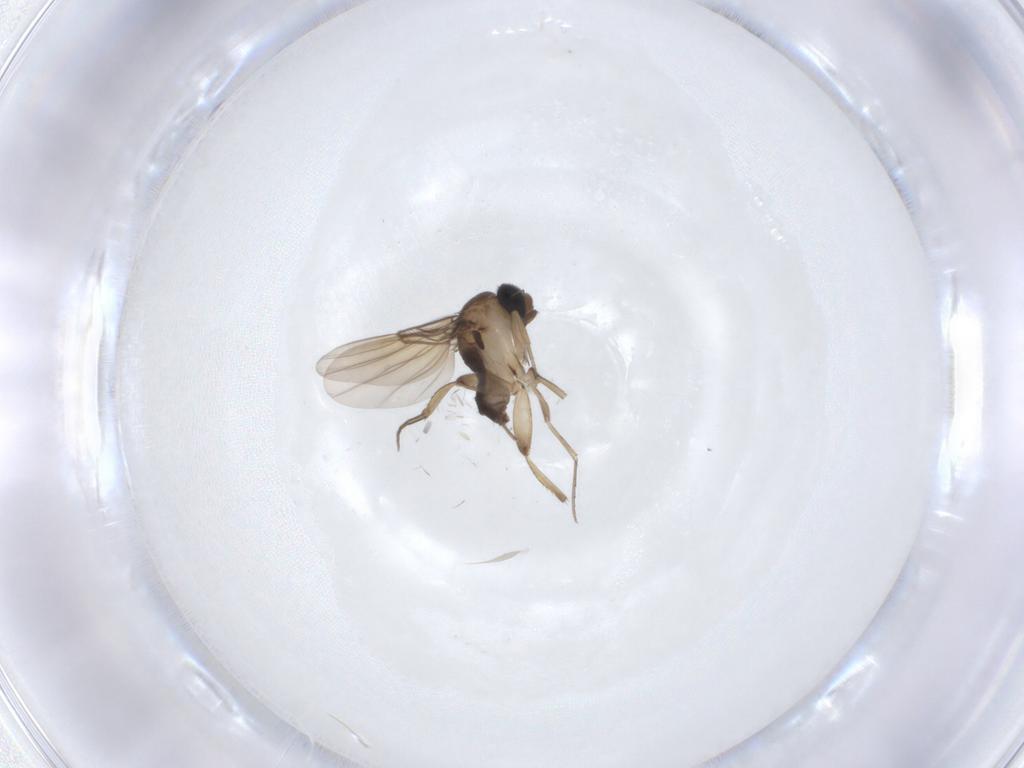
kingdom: Animalia
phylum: Arthropoda
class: Insecta
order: Diptera
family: Phoridae
